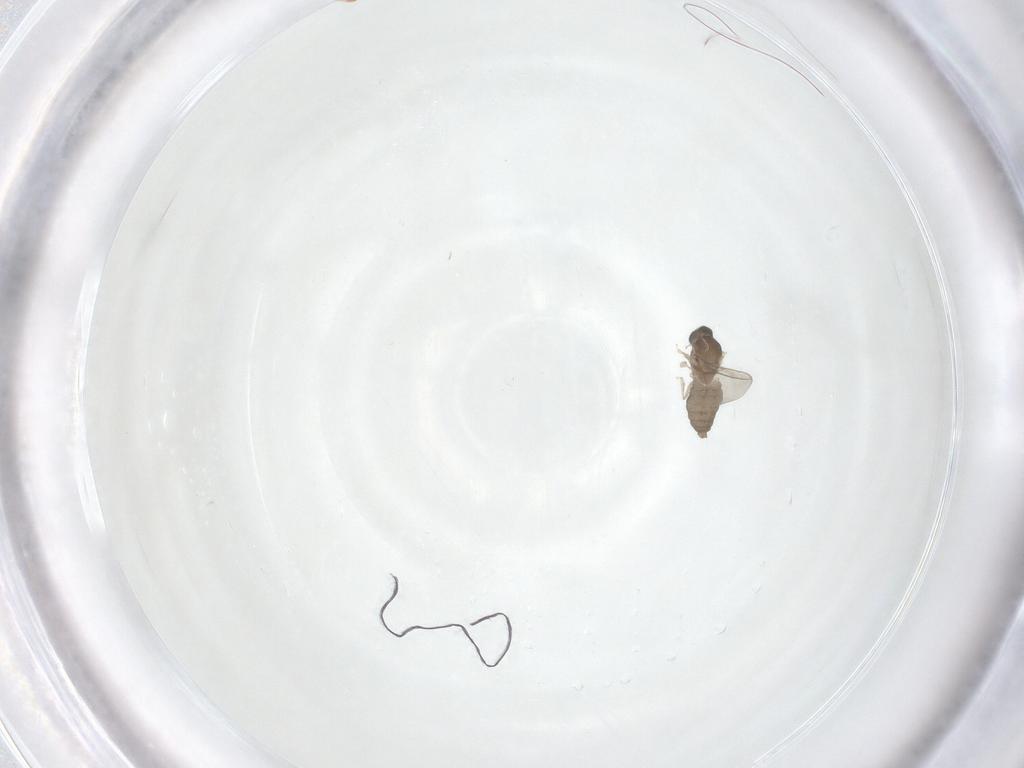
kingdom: Animalia
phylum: Arthropoda
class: Insecta
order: Diptera
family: Cecidomyiidae
